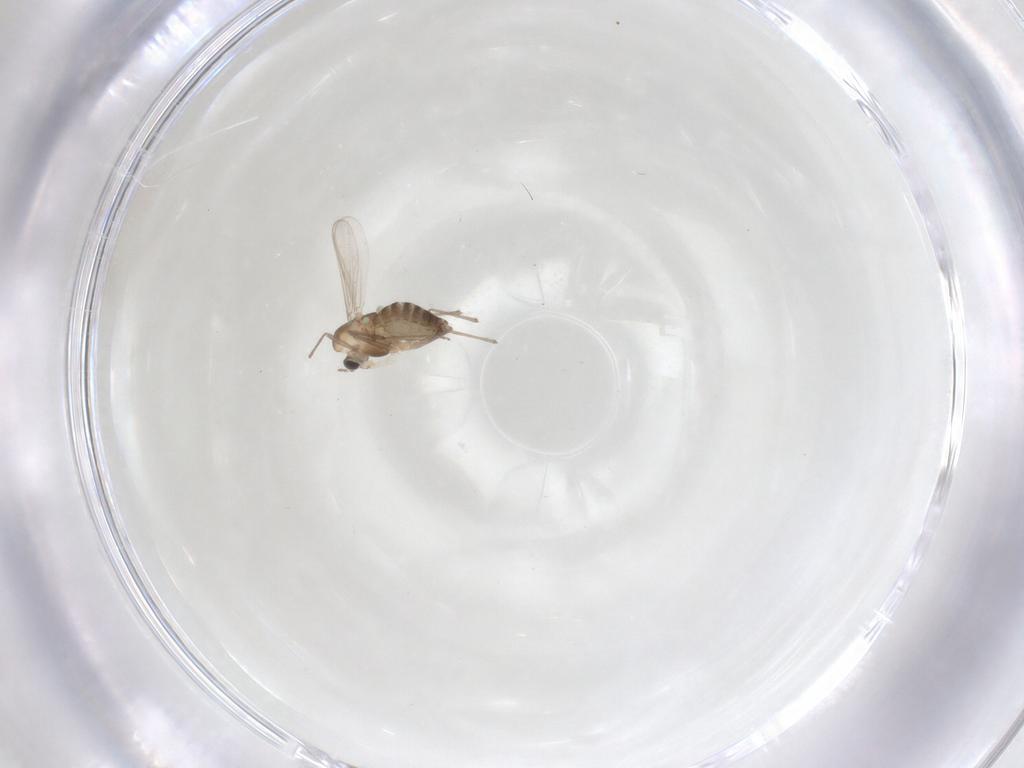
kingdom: Animalia
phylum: Arthropoda
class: Insecta
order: Diptera
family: Chironomidae
